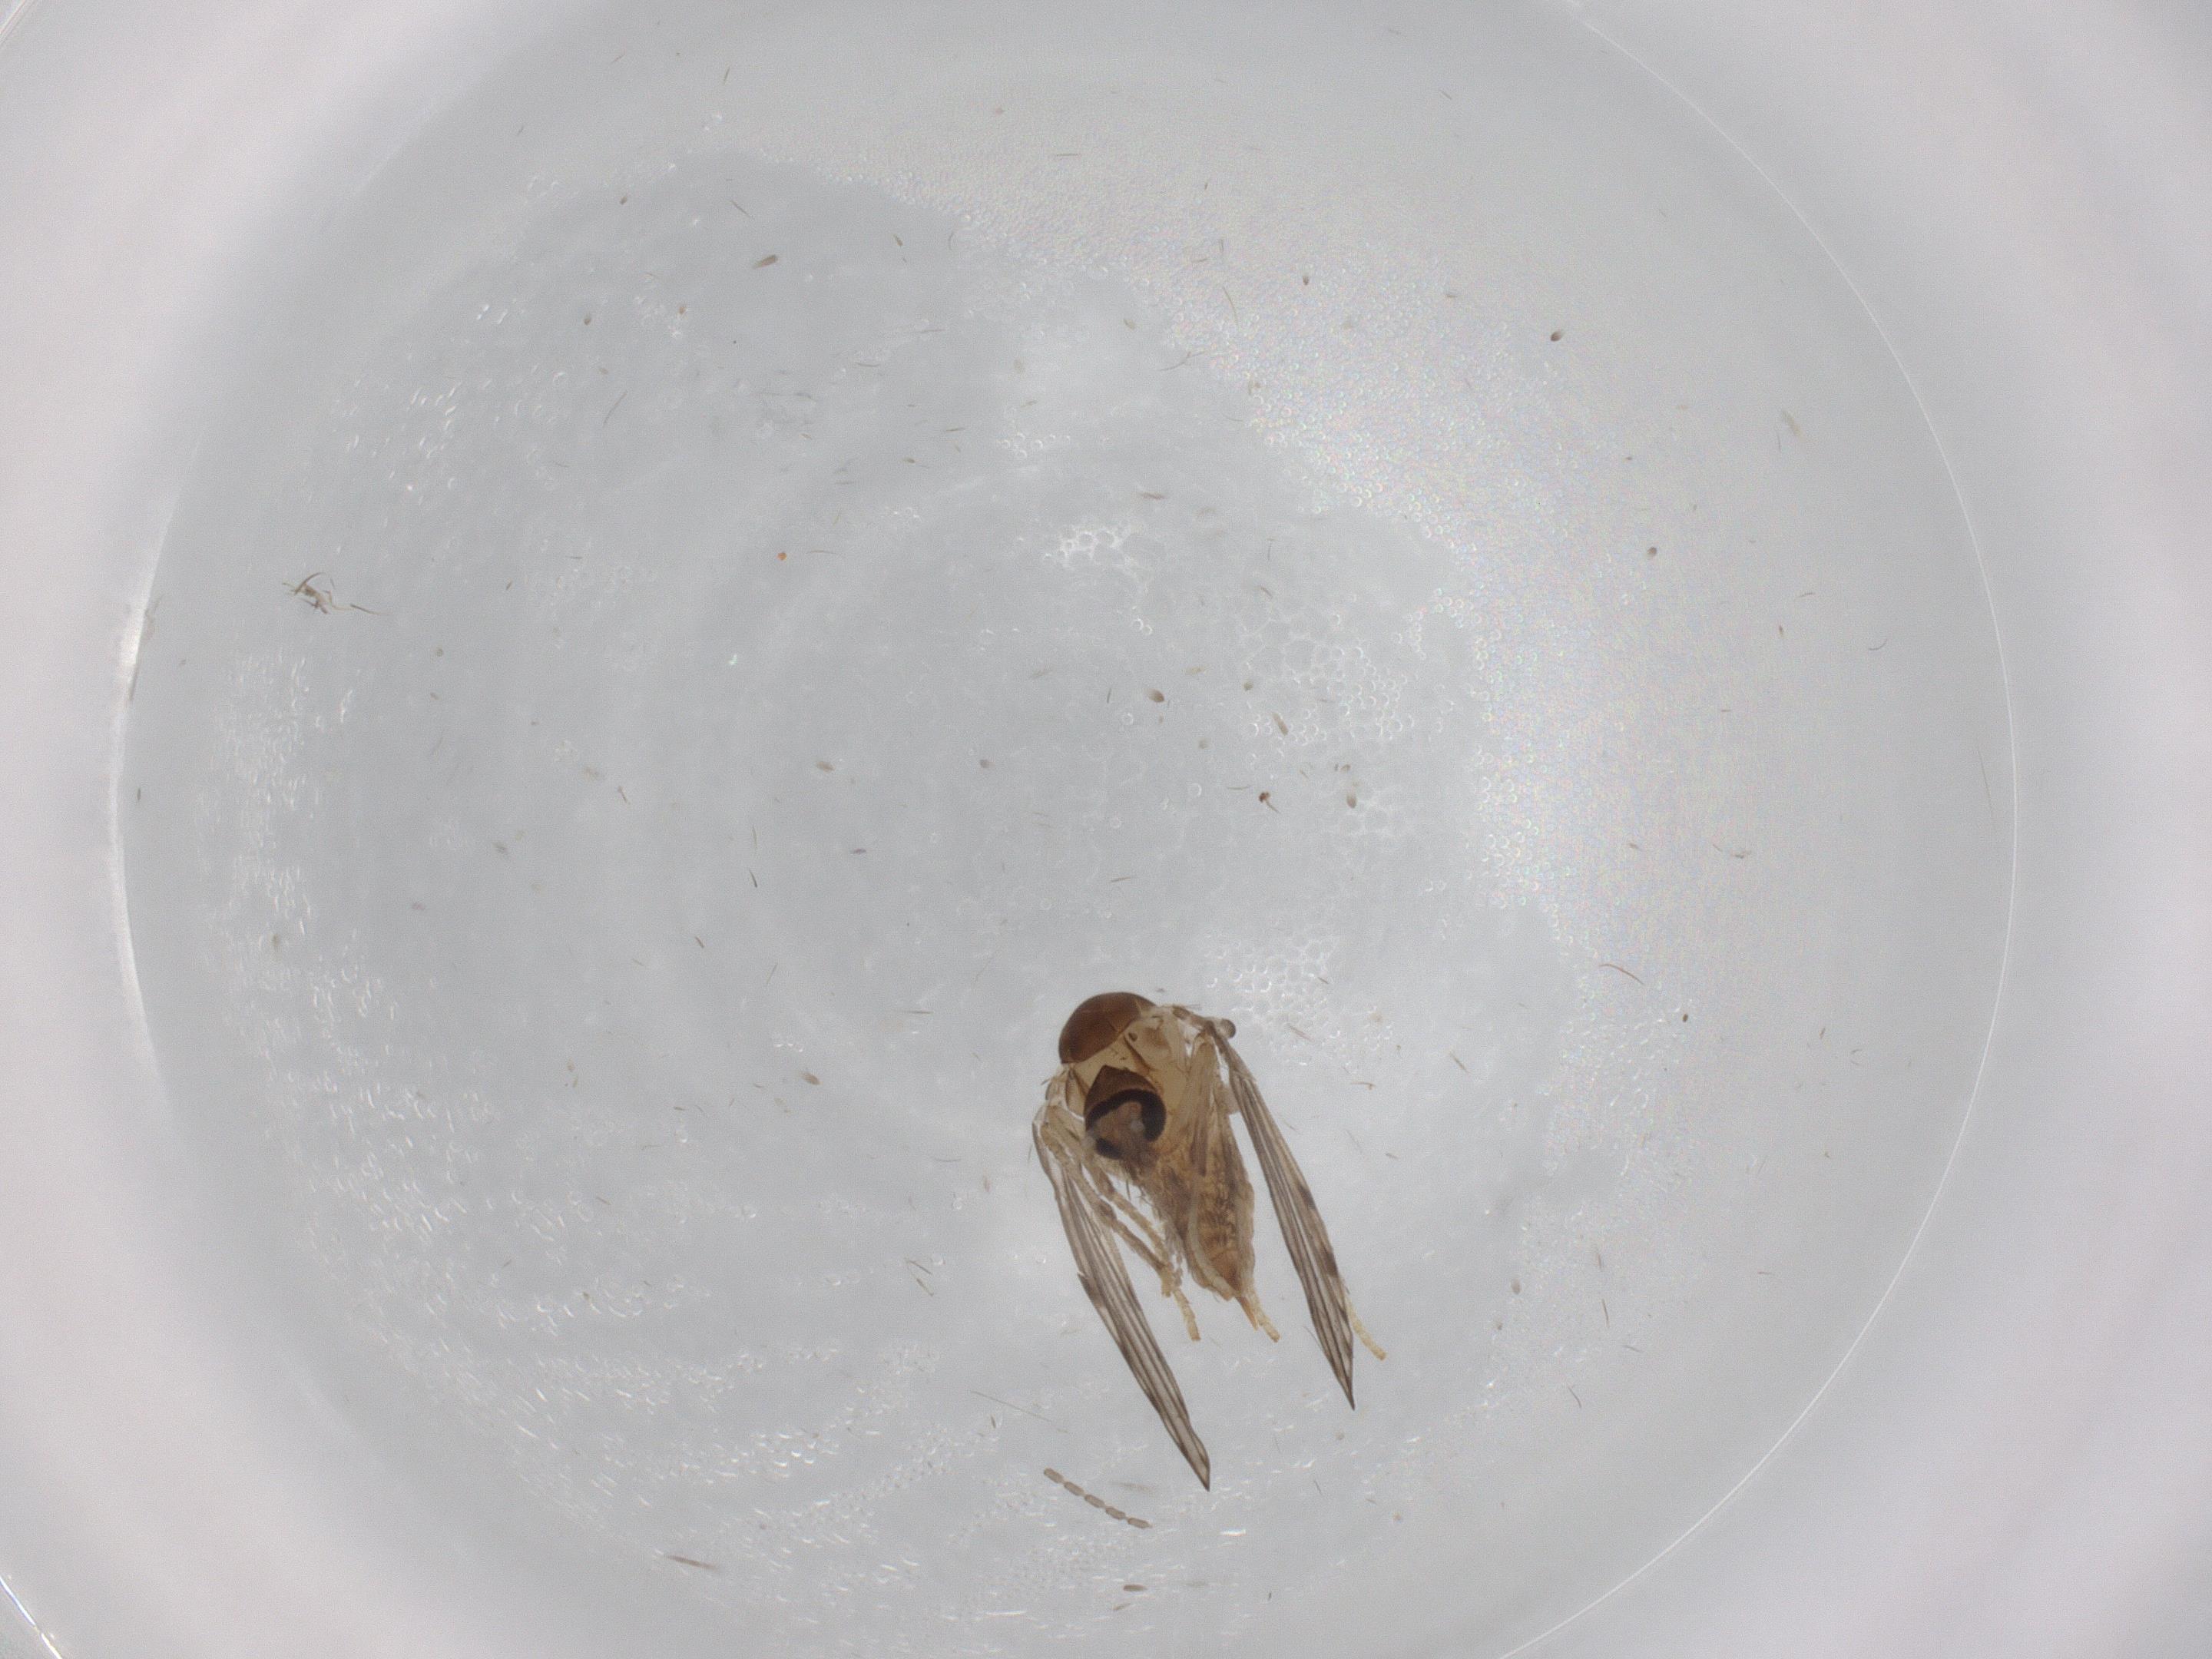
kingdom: Animalia
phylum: Arthropoda
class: Insecta
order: Diptera
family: Cecidomyiidae
